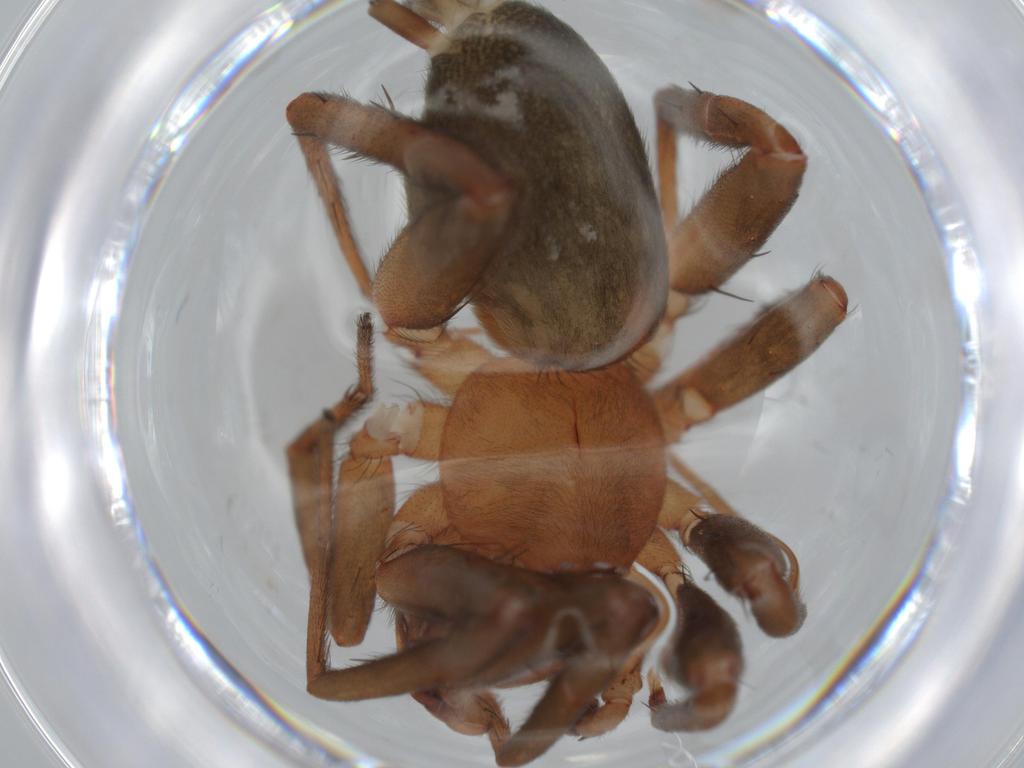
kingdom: Animalia
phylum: Arthropoda
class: Arachnida
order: Araneae
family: Gnaphosidae
